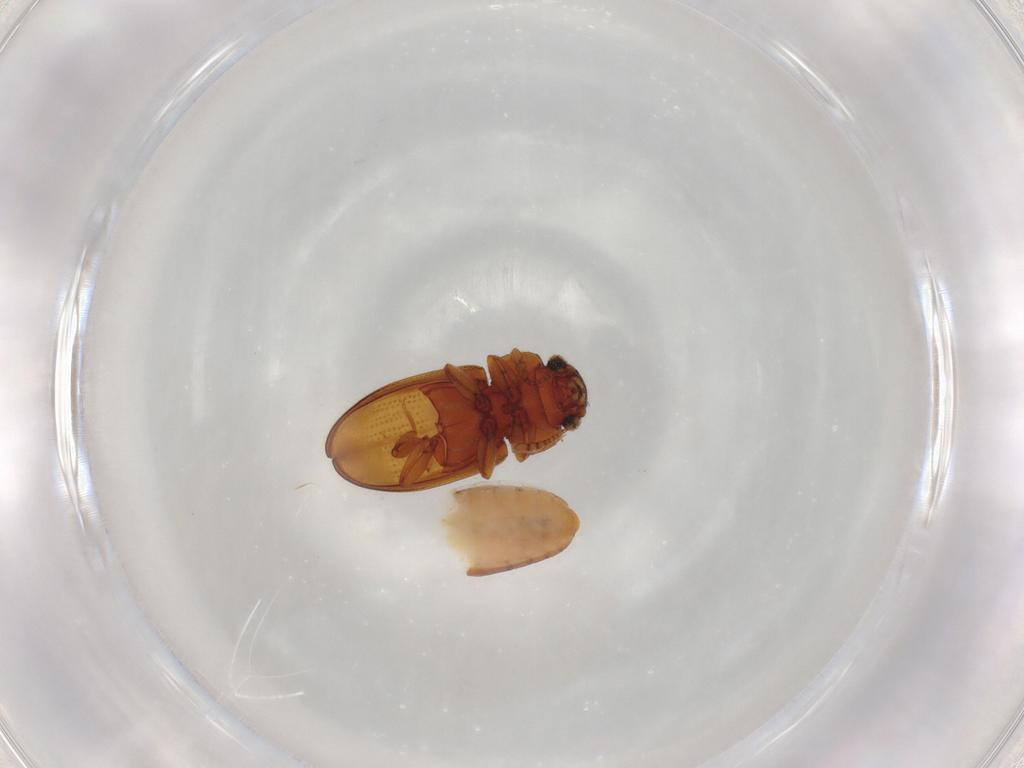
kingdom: Animalia
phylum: Arthropoda
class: Insecta
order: Coleoptera
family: Erotylidae
